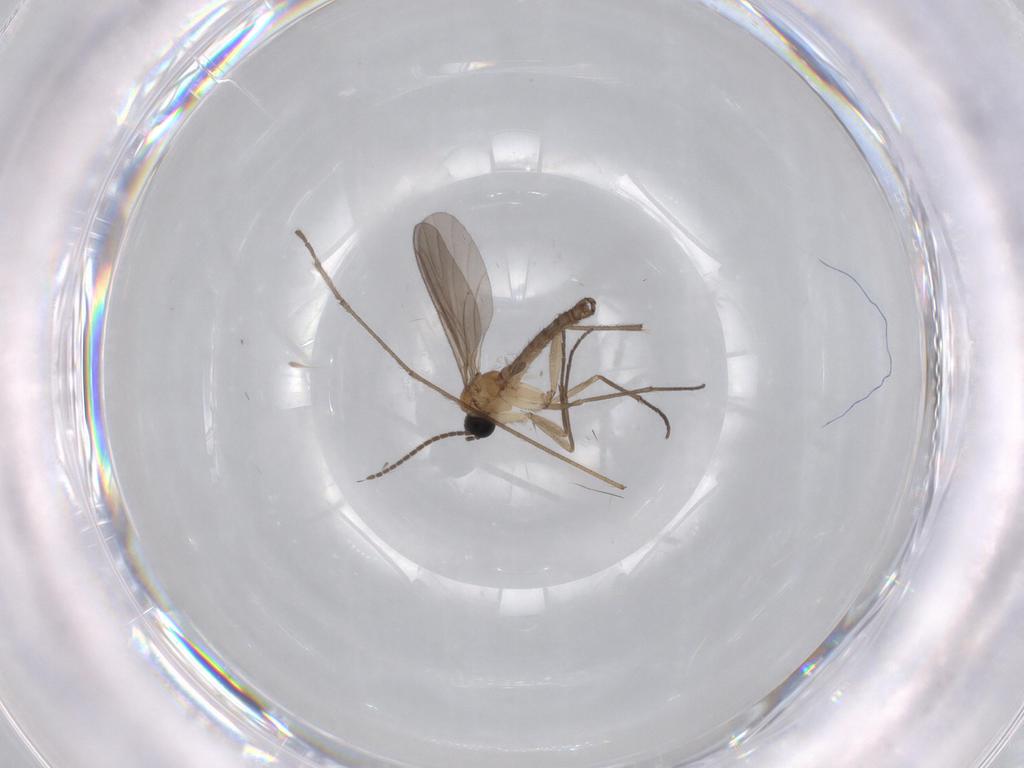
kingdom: Animalia
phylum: Arthropoda
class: Insecta
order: Diptera
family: Sciaridae
